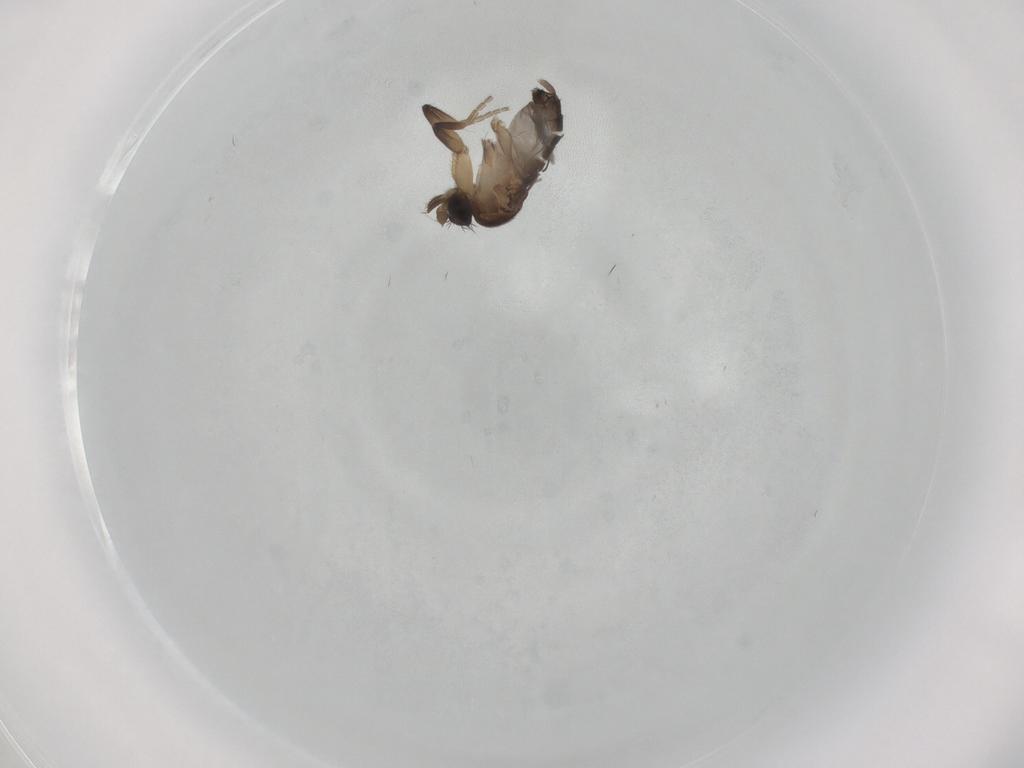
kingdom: Animalia
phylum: Arthropoda
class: Insecta
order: Diptera
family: Phoridae
